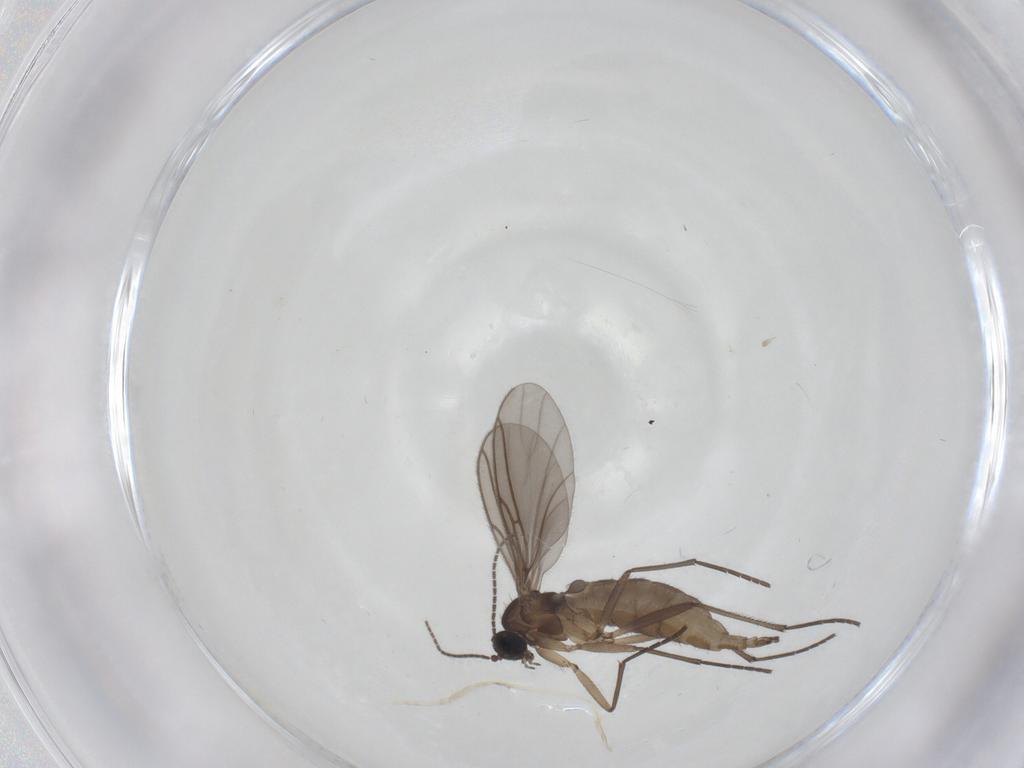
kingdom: Animalia
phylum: Arthropoda
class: Insecta
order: Diptera
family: Sciaridae
